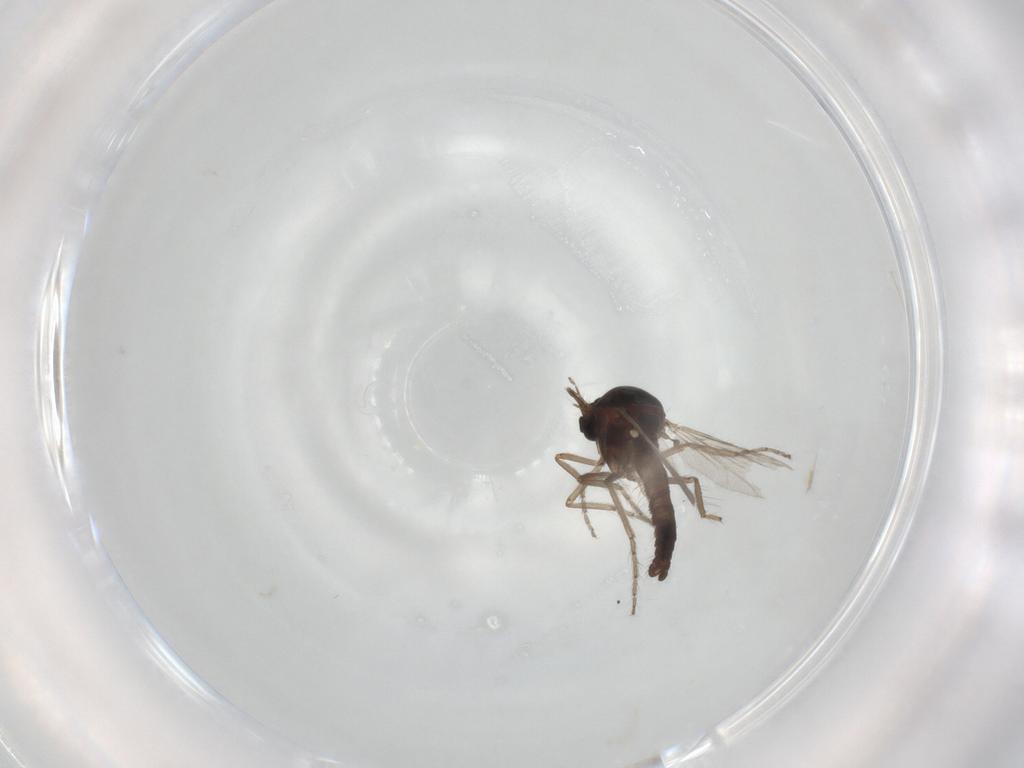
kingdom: Animalia
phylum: Arthropoda
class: Insecta
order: Diptera
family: Ceratopogonidae
